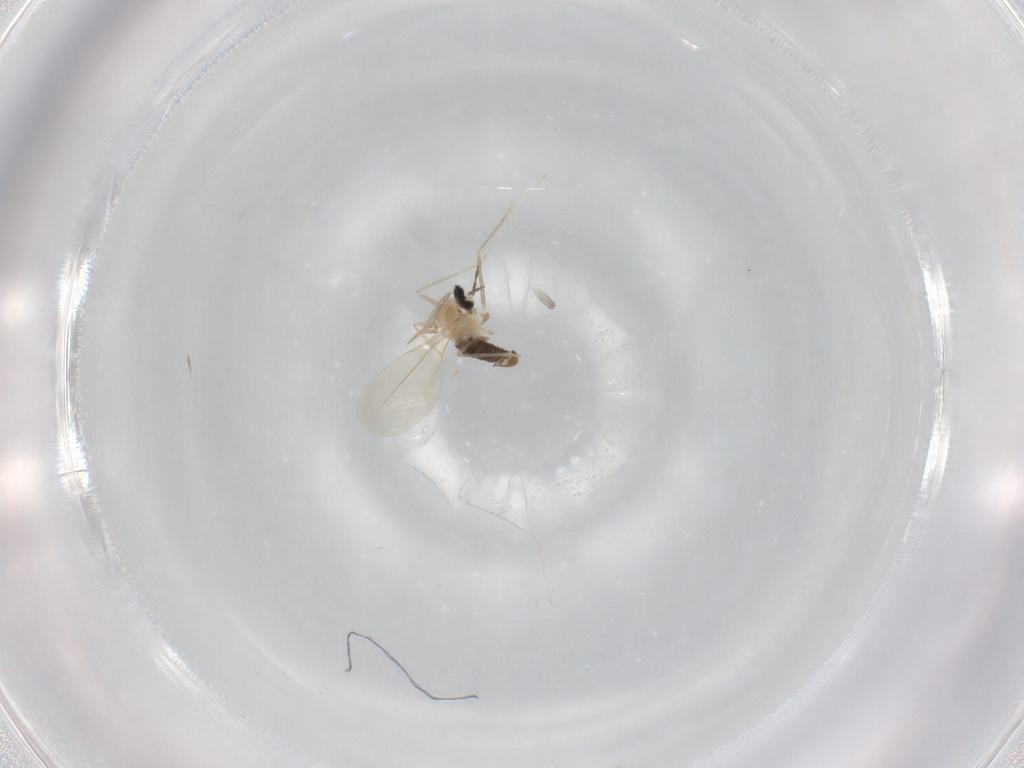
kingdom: Animalia
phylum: Arthropoda
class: Insecta
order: Diptera
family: Cecidomyiidae
